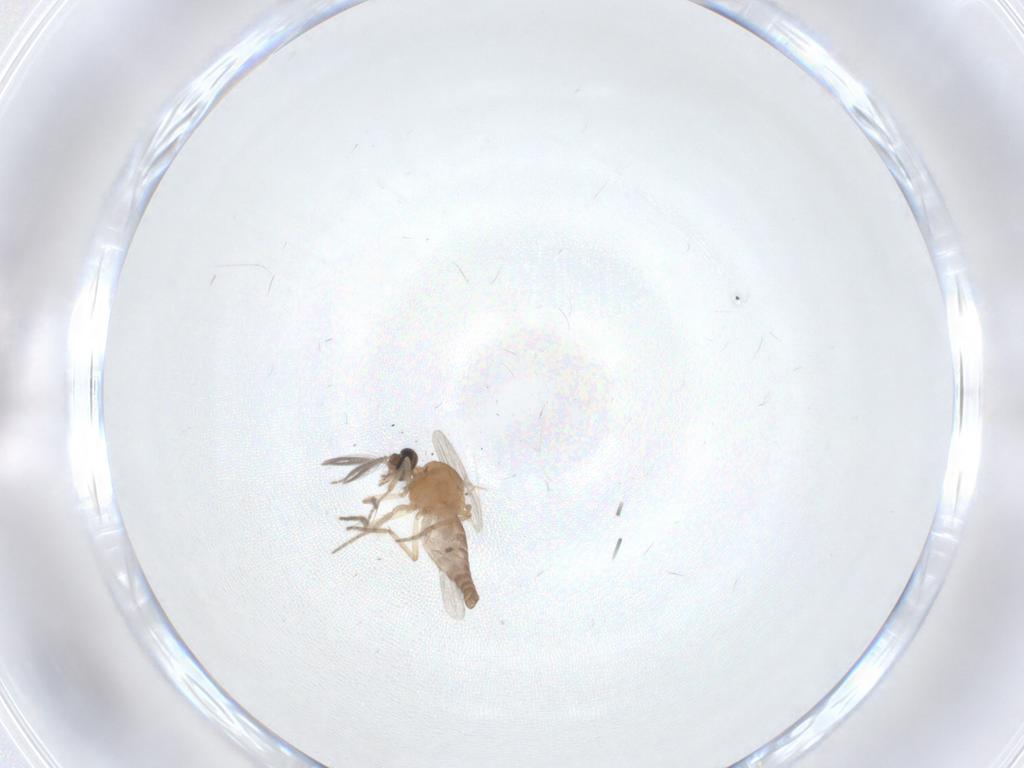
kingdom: Animalia
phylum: Arthropoda
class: Insecta
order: Diptera
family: Ceratopogonidae
